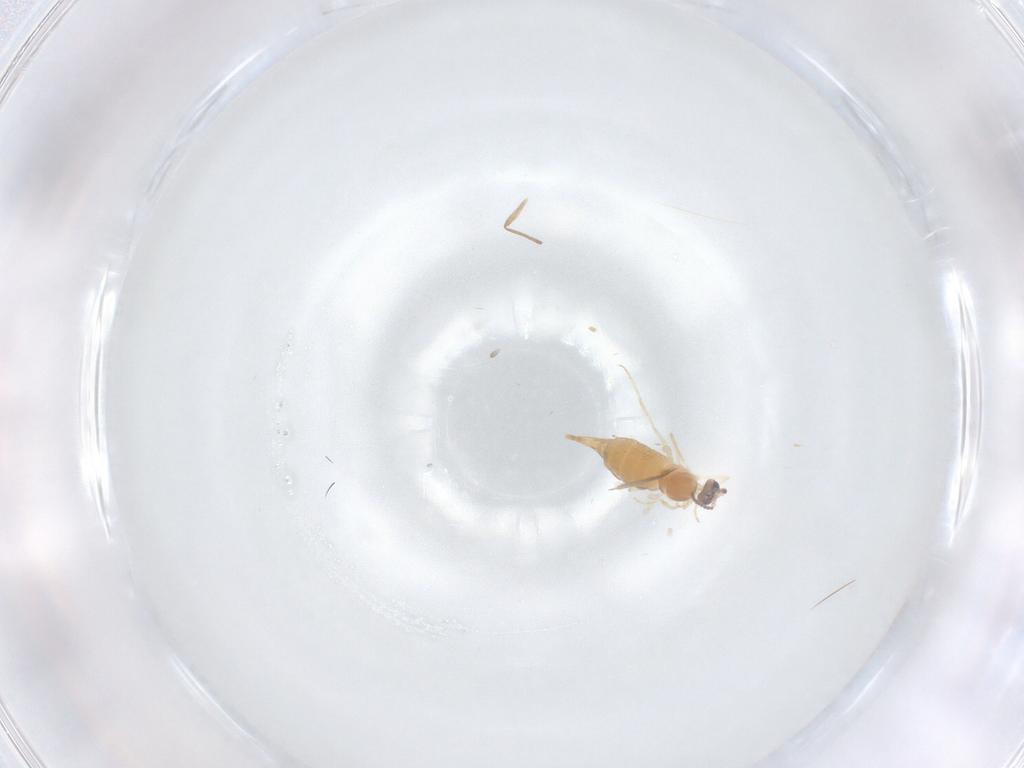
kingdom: Animalia
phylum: Arthropoda
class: Insecta
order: Diptera
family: Cecidomyiidae
